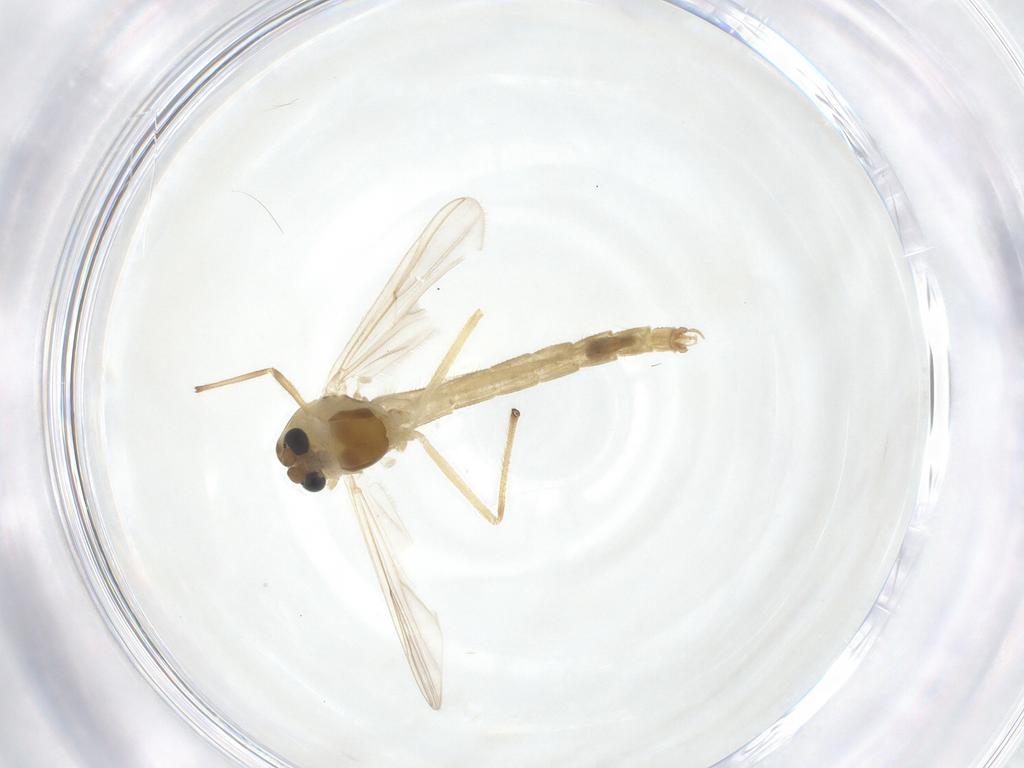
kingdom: Animalia
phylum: Arthropoda
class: Insecta
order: Diptera
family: Chironomidae
